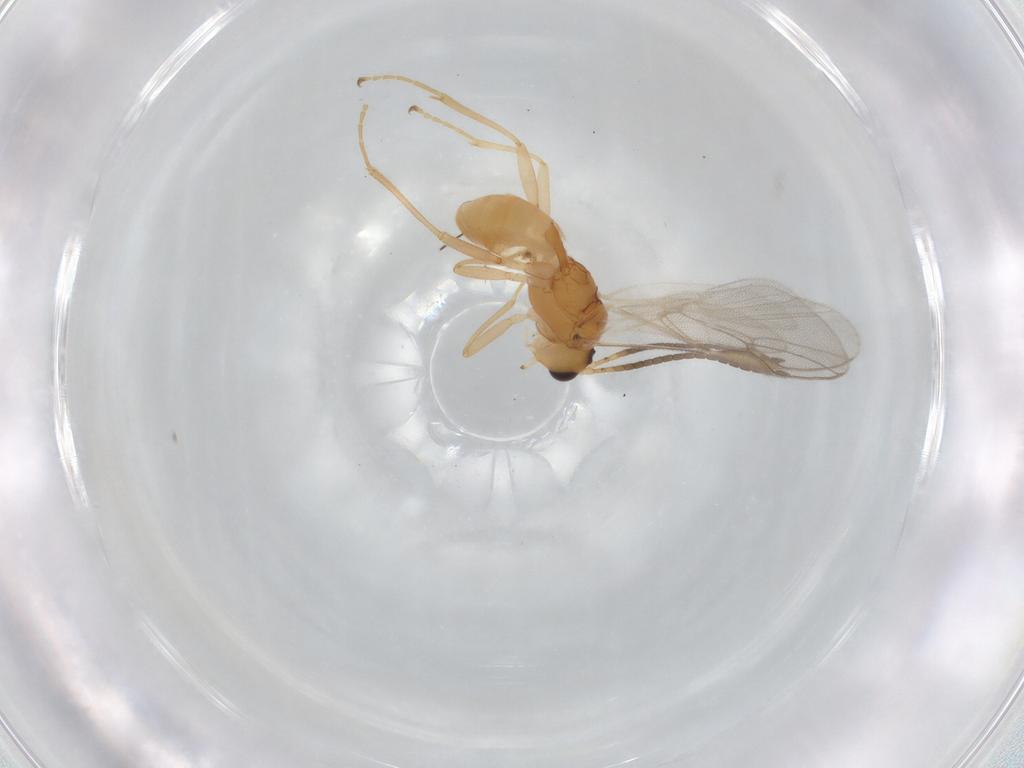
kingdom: Animalia
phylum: Arthropoda
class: Insecta
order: Hymenoptera
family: Braconidae
